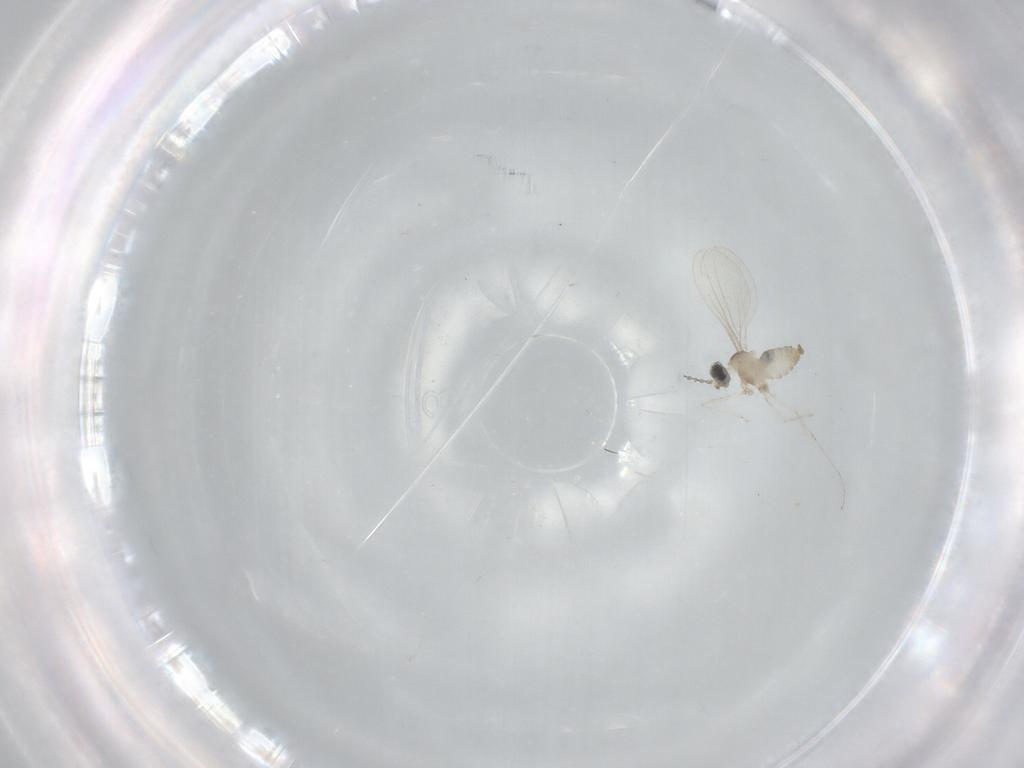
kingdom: Animalia
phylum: Arthropoda
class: Insecta
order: Diptera
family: Cecidomyiidae
